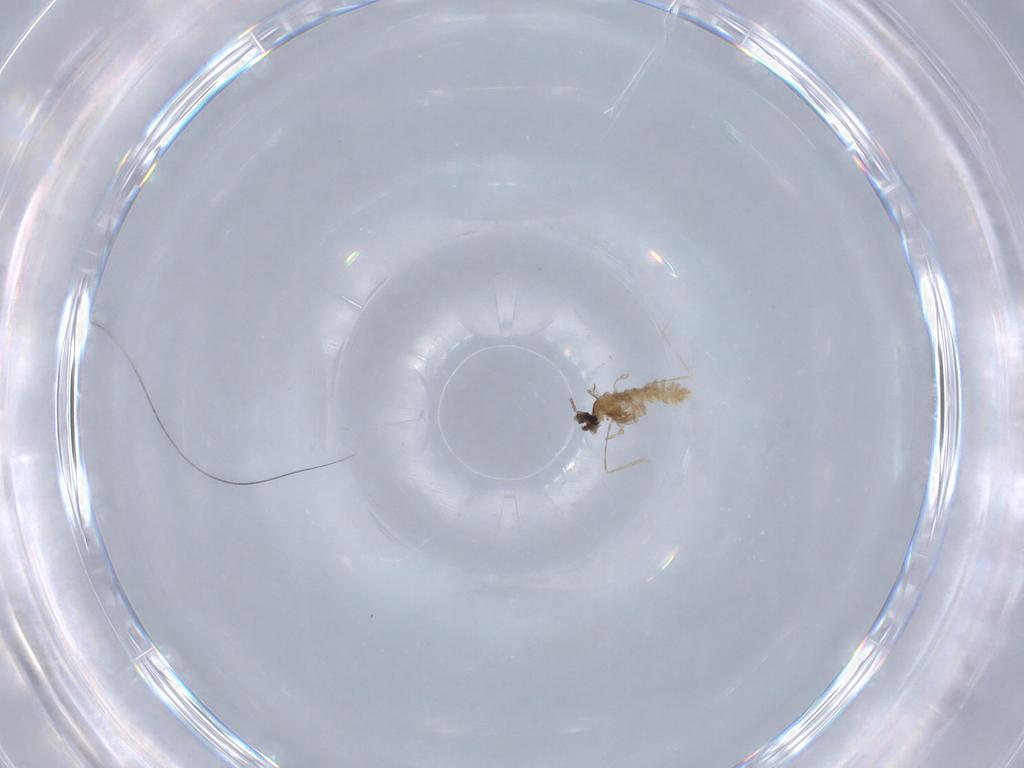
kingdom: Animalia
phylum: Arthropoda
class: Insecta
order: Diptera
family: Cecidomyiidae
